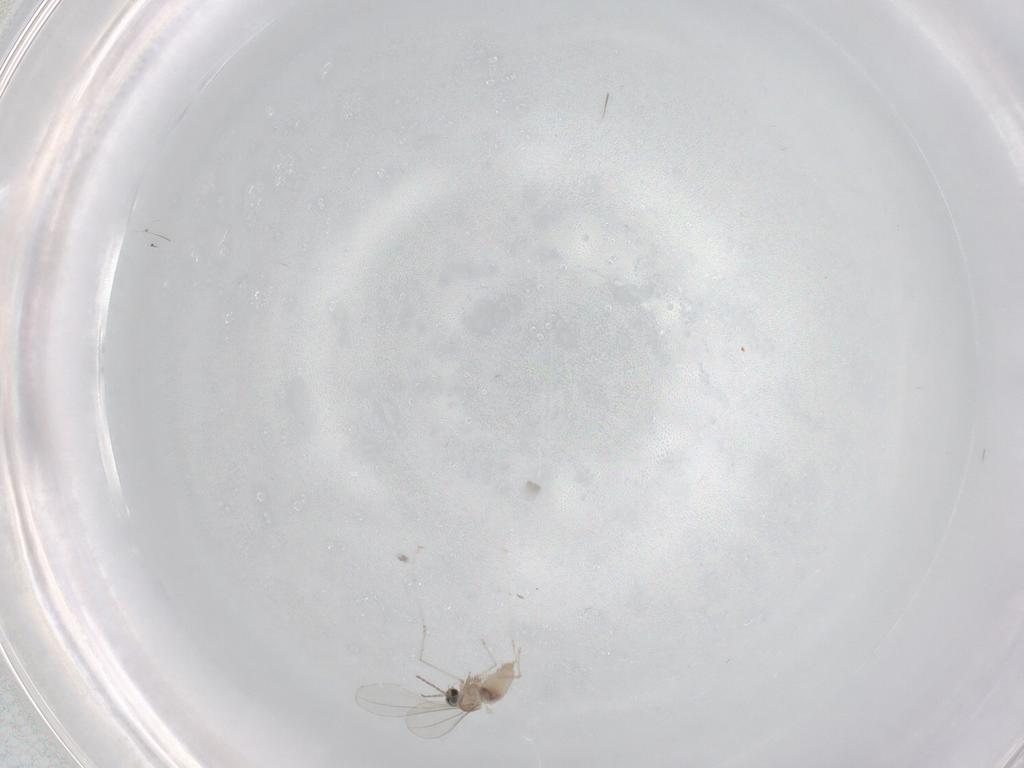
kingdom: Animalia
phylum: Arthropoda
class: Insecta
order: Diptera
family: Cecidomyiidae
